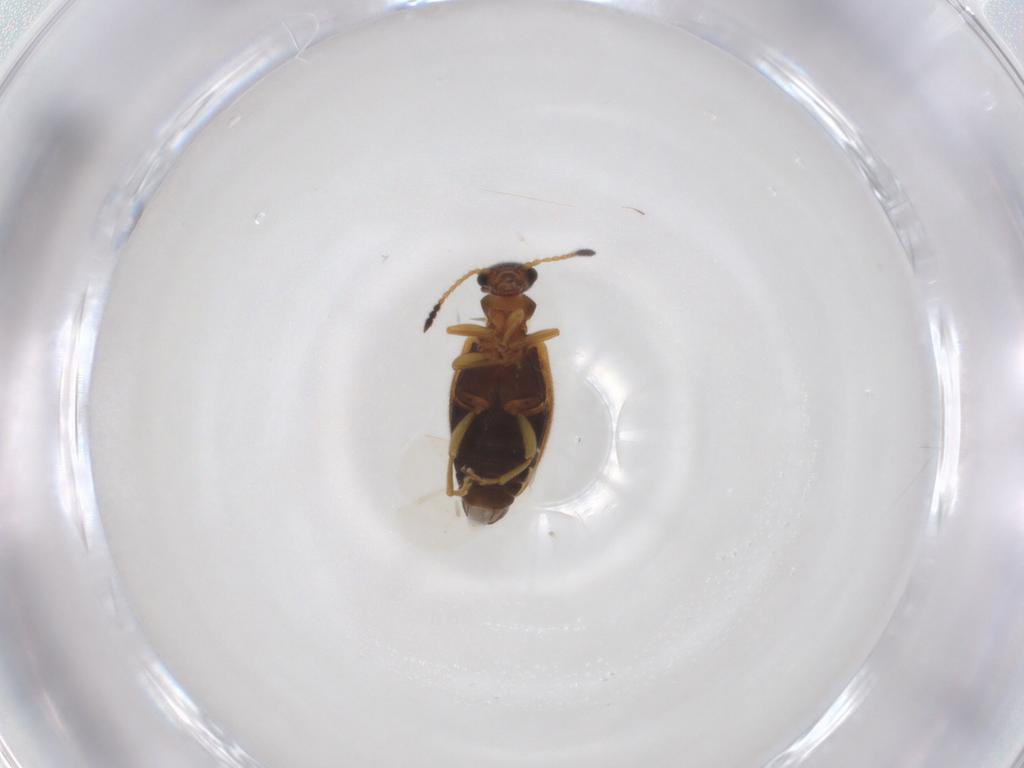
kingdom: Animalia
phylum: Arthropoda
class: Insecta
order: Coleoptera
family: Anthicidae
